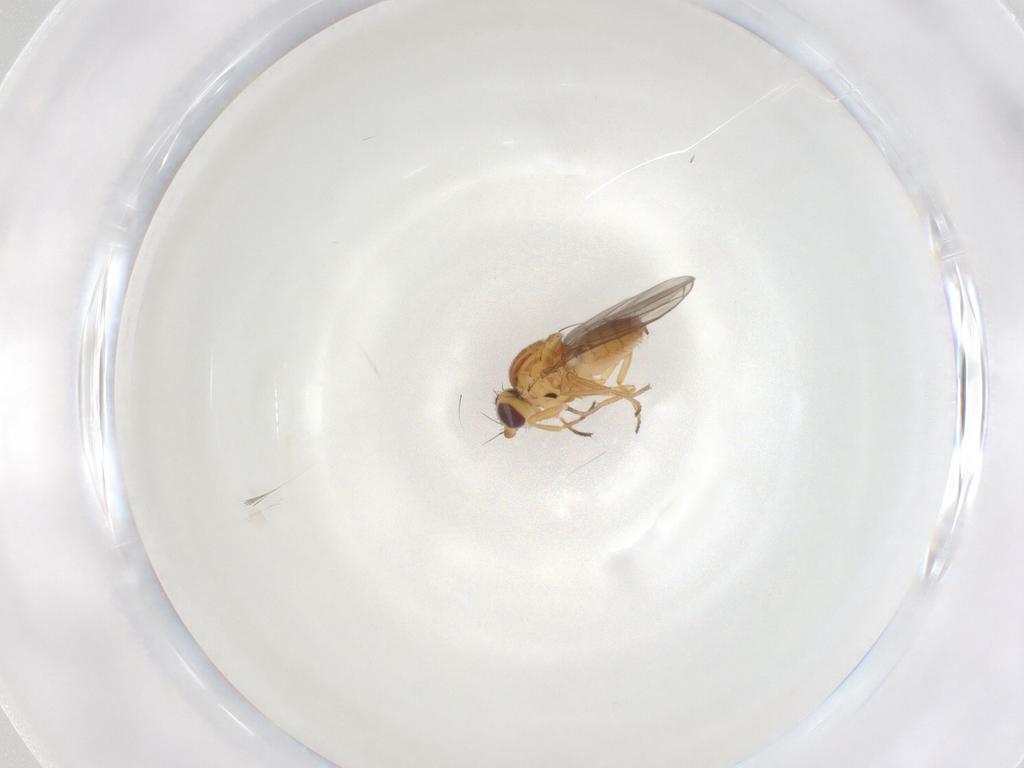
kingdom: Animalia
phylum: Arthropoda
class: Insecta
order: Diptera
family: Chloropidae
